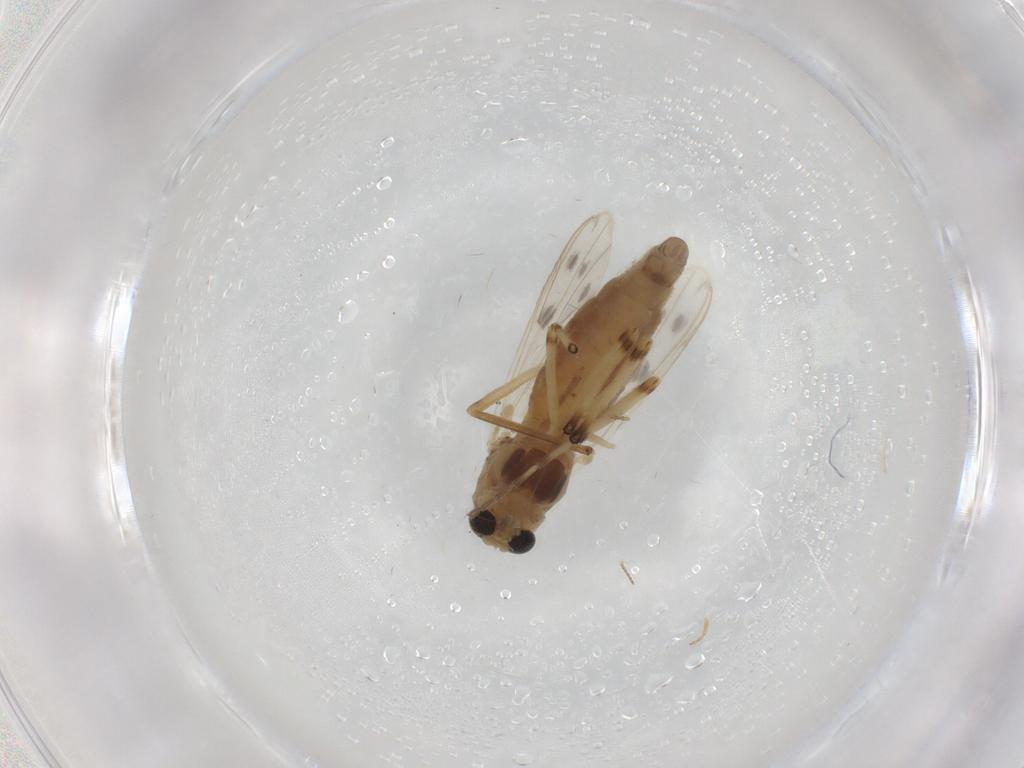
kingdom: Animalia
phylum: Arthropoda
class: Insecta
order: Diptera
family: Cecidomyiidae
